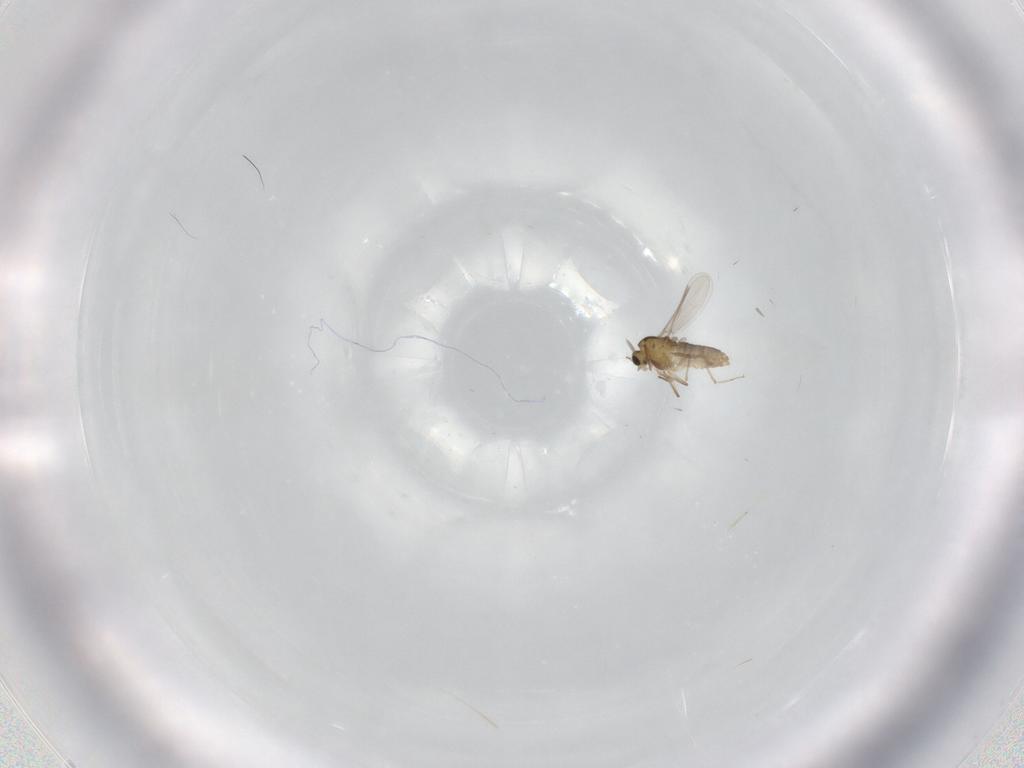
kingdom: Animalia
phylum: Arthropoda
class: Insecta
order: Diptera
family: Chironomidae
